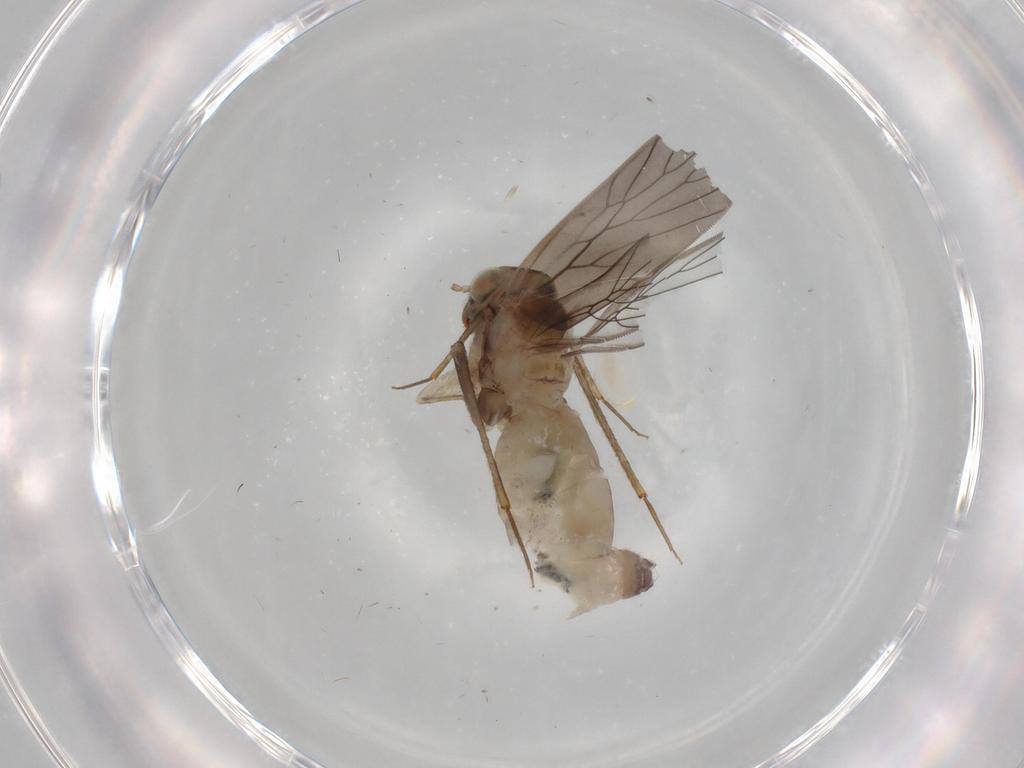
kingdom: Animalia
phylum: Arthropoda
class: Insecta
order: Psocodea
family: Lepidopsocidae
